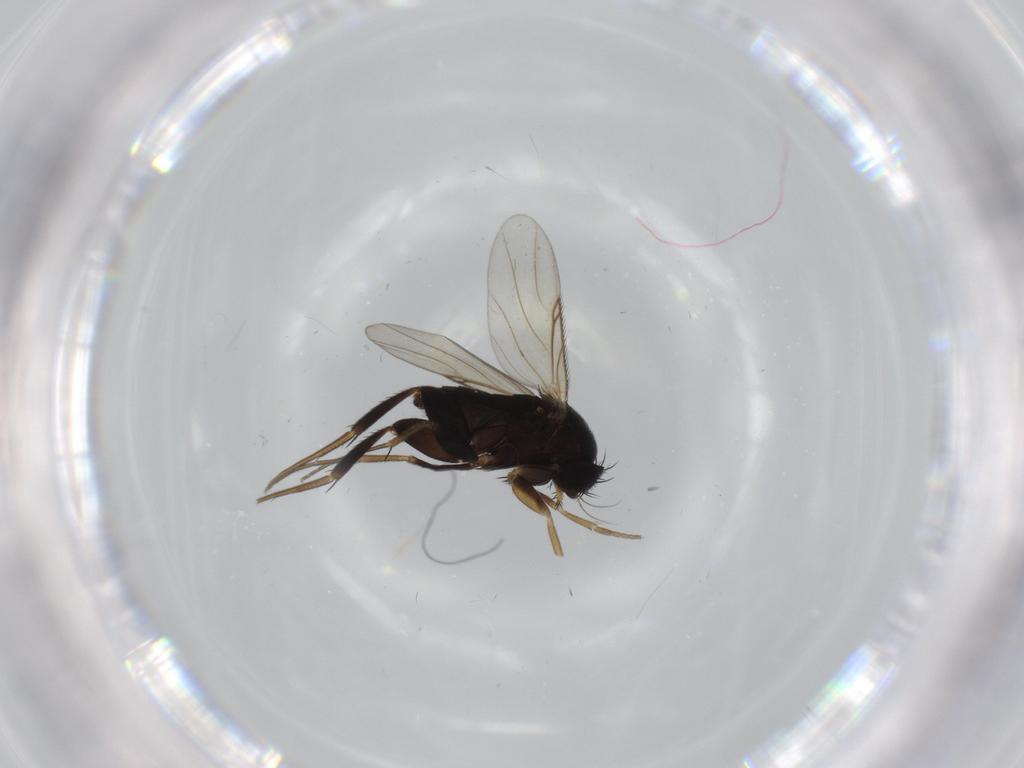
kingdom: Animalia
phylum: Arthropoda
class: Insecta
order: Diptera
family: Phoridae
